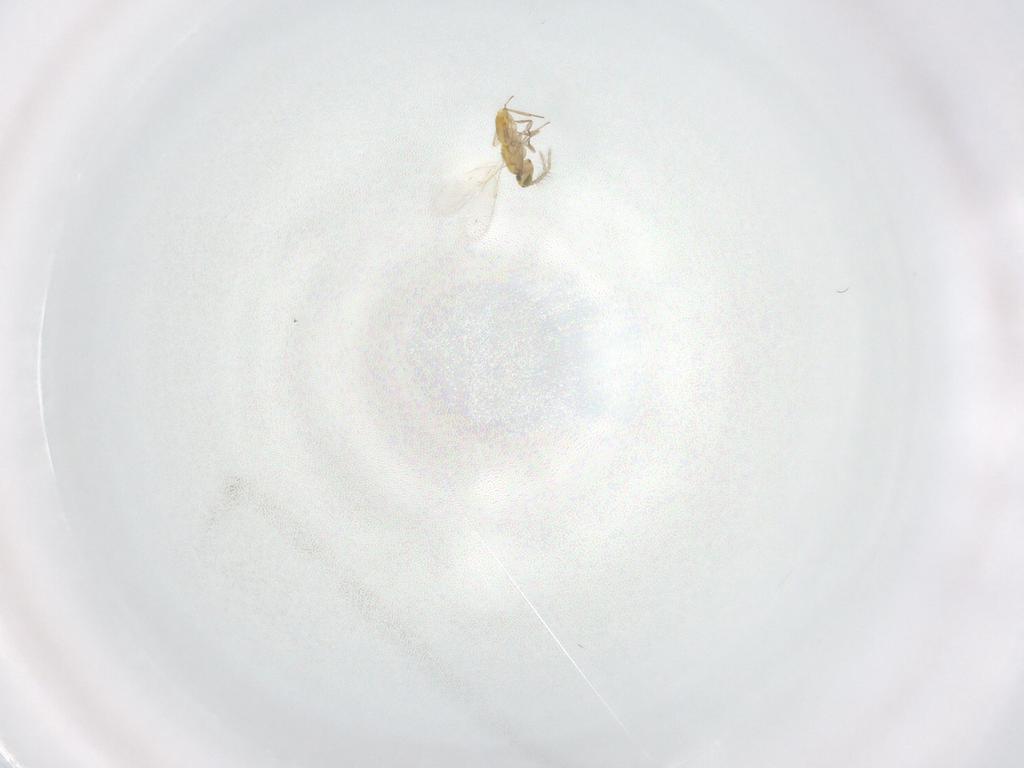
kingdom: Animalia
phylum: Arthropoda
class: Insecta
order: Hymenoptera
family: Aphelinidae
